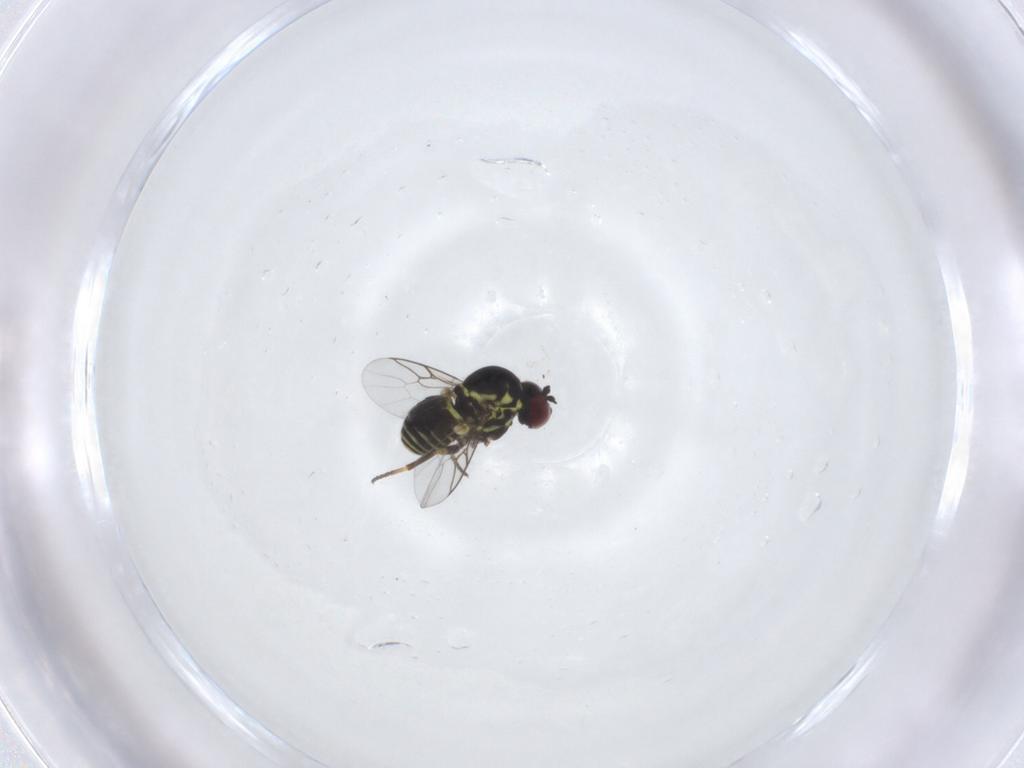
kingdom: Animalia
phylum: Arthropoda
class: Insecta
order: Diptera
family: Mythicomyiidae
